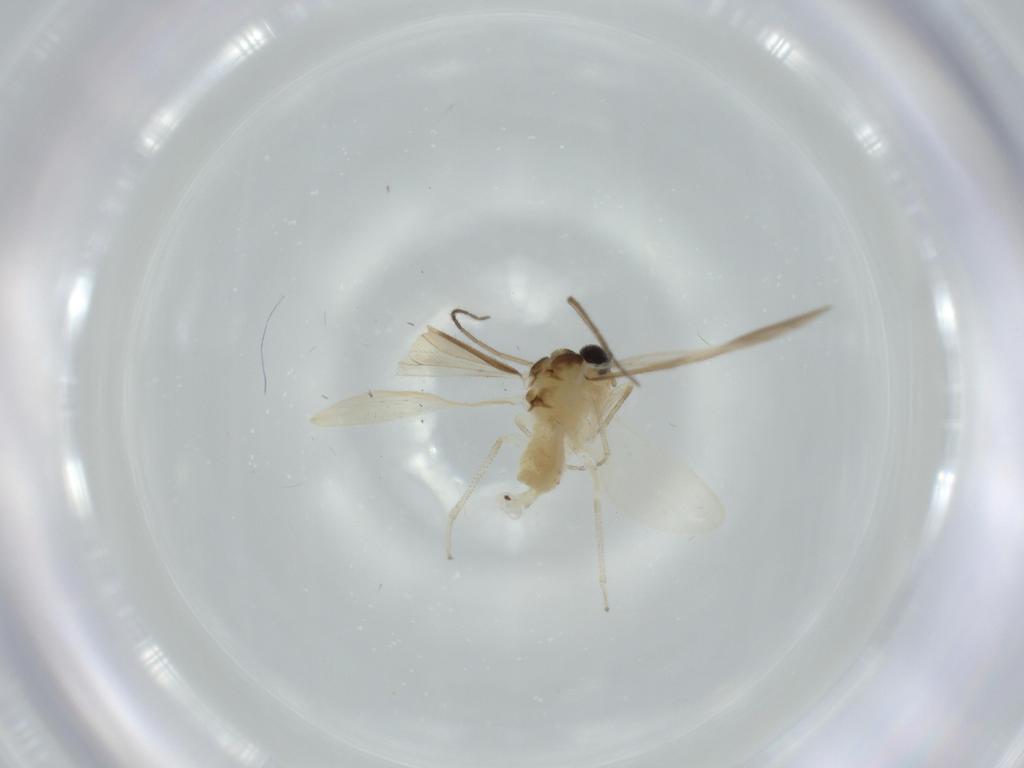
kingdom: Animalia
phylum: Arthropoda
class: Insecta
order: Psocodea
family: Caeciliusidae
